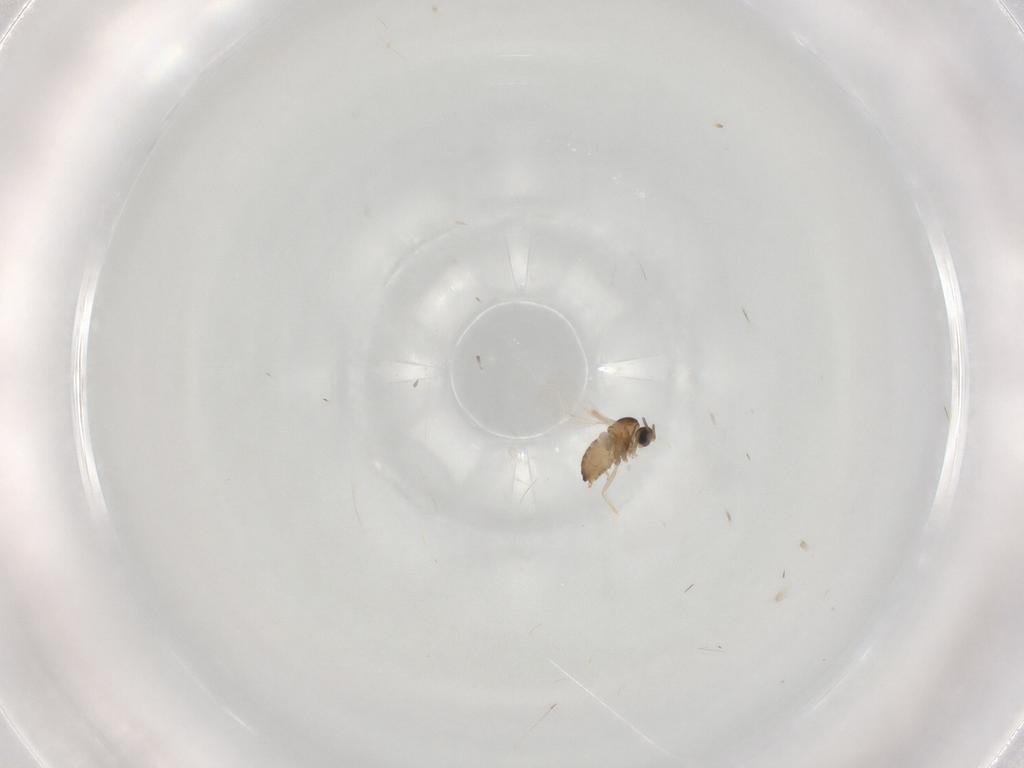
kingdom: Animalia
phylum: Arthropoda
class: Insecta
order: Diptera
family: Cecidomyiidae
